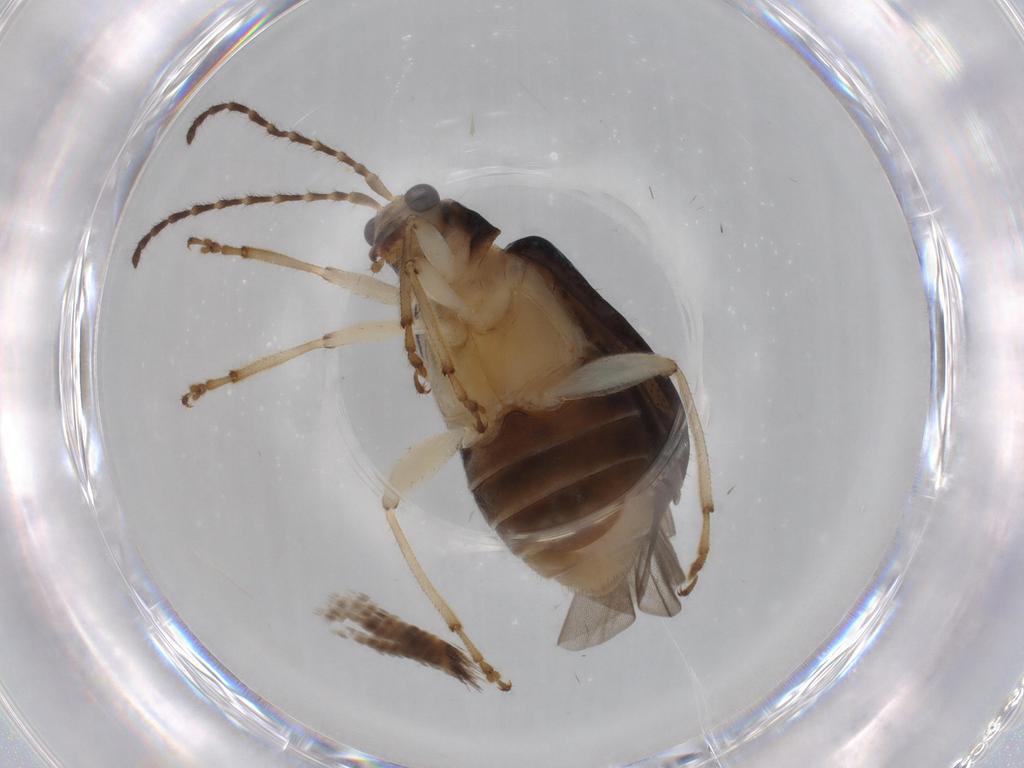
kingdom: Animalia
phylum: Arthropoda
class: Insecta
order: Coleoptera
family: Chrysomelidae
